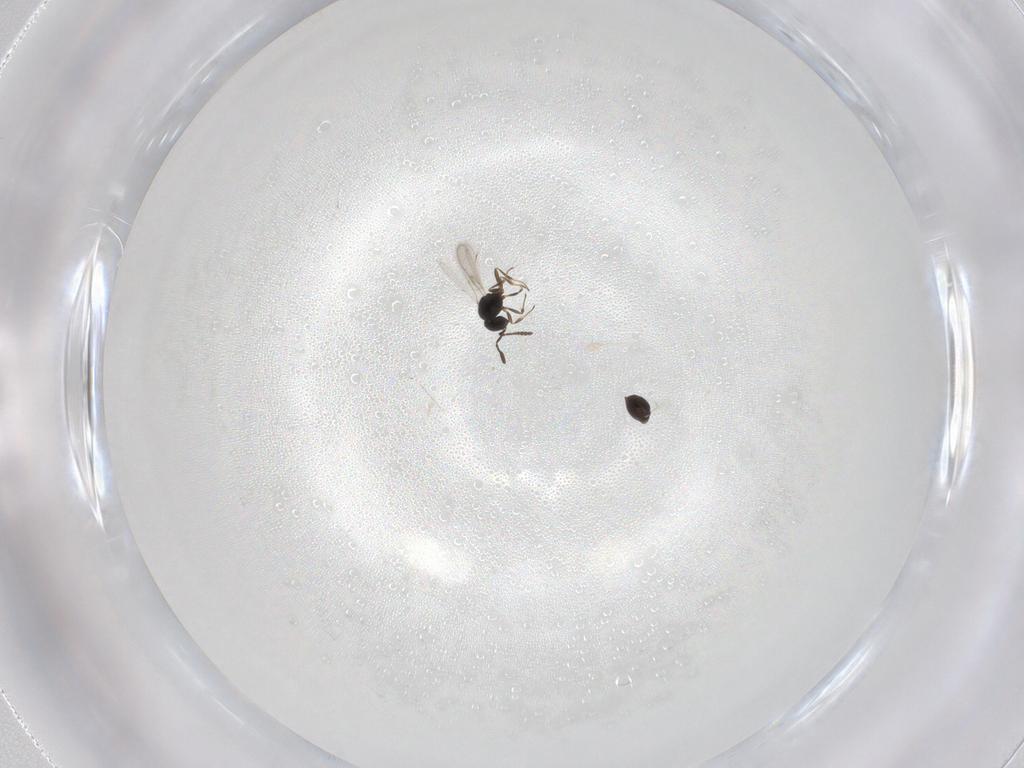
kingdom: Animalia
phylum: Arthropoda
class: Insecta
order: Hymenoptera
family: Scelionidae
